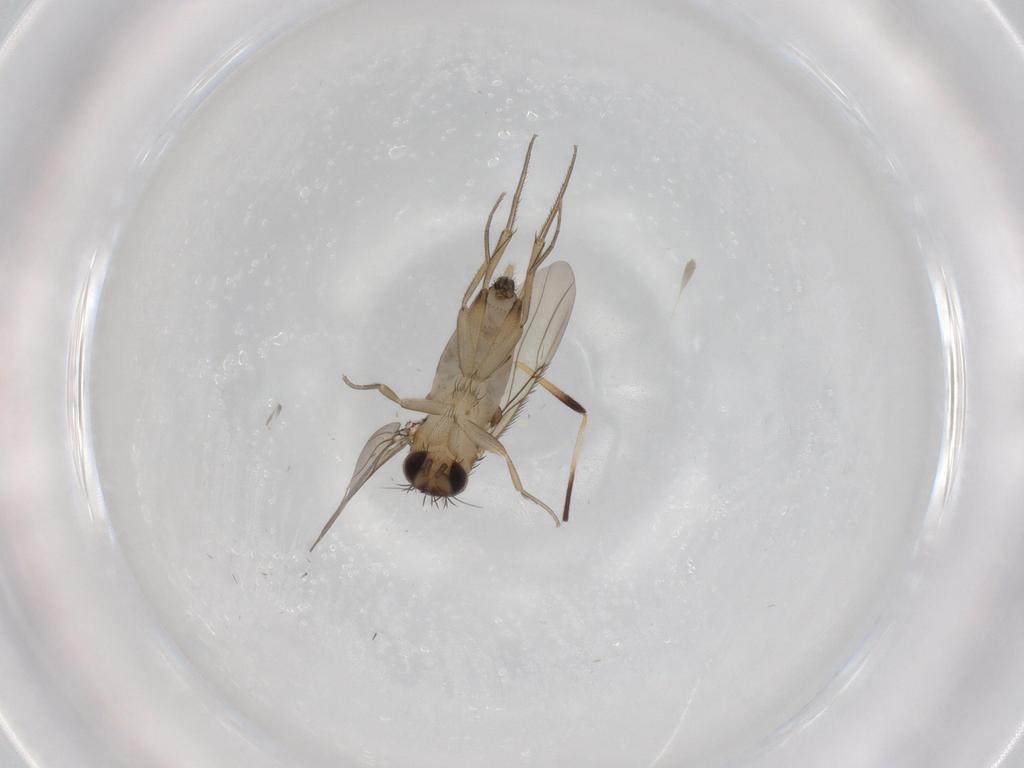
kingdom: Animalia
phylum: Arthropoda
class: Insecta
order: Diptera
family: Phoridae
